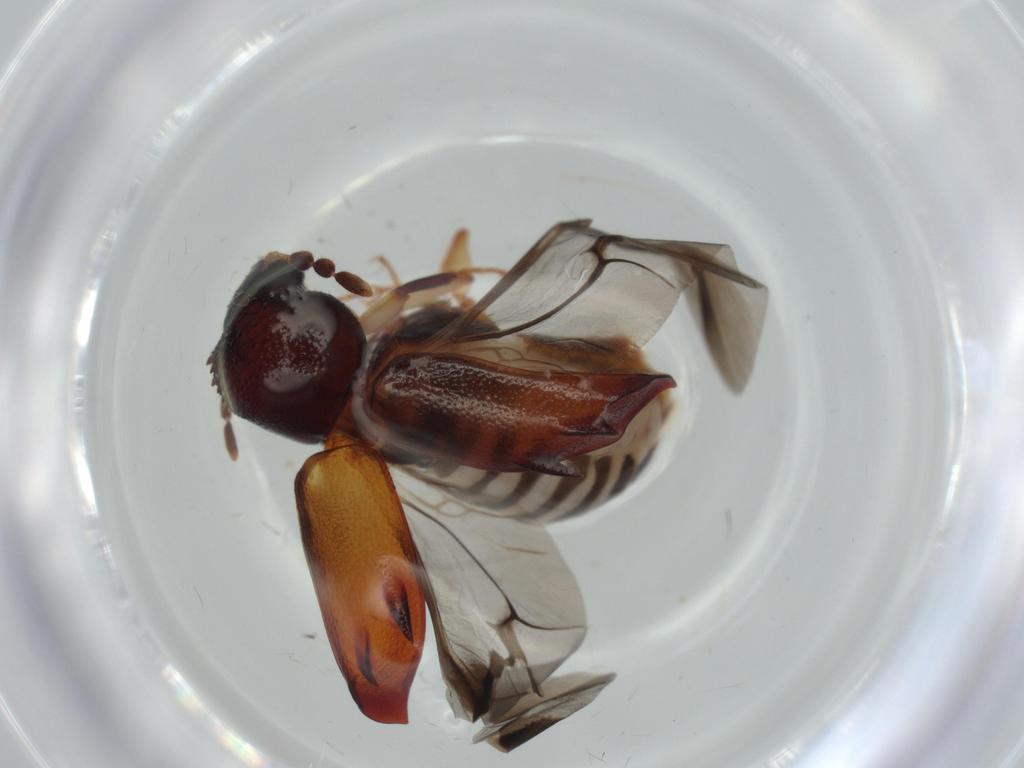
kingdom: Animalia
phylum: Arthropoda
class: Insecta
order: Coleoptera
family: Bostrichidae
